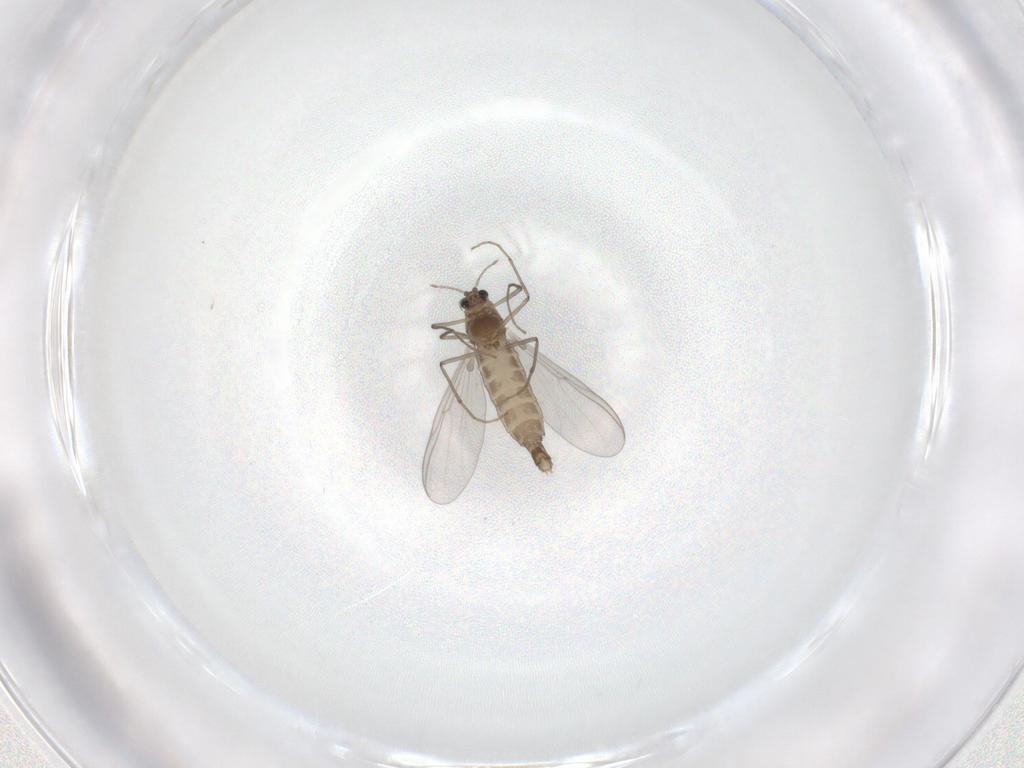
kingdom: Animalia
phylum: Arthropoda
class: Insecta
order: Diptera
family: Chironomidae
